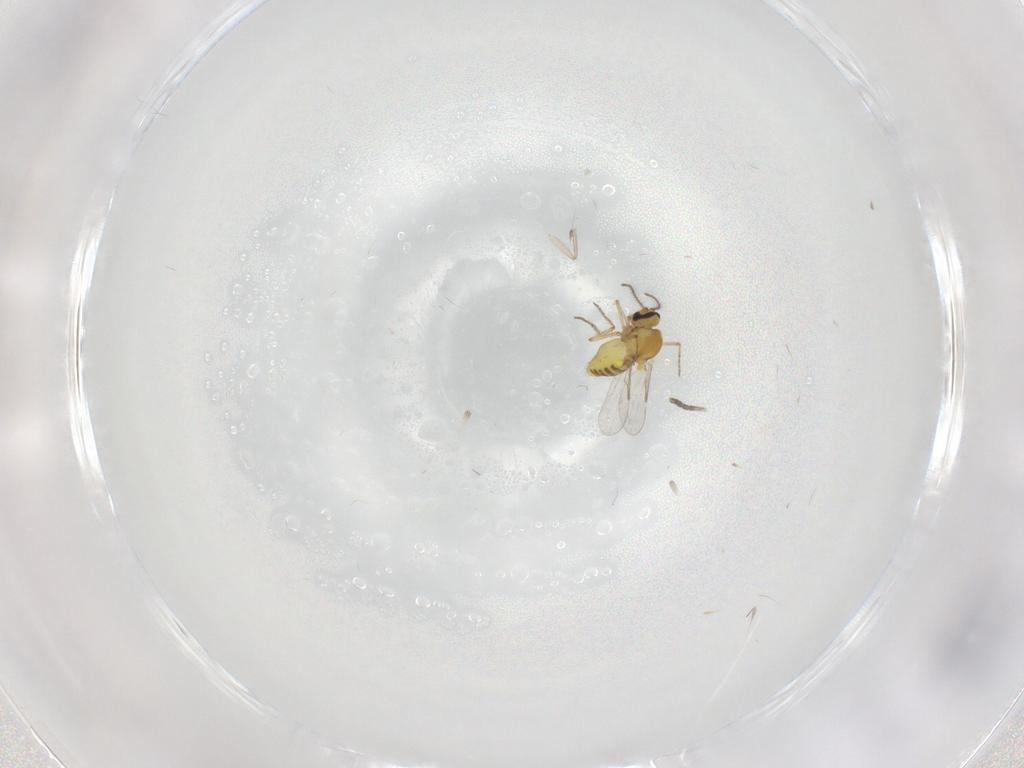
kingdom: Animalia
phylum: Arthropoda
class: Insecta
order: Diptera
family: Ceratopogonidae
